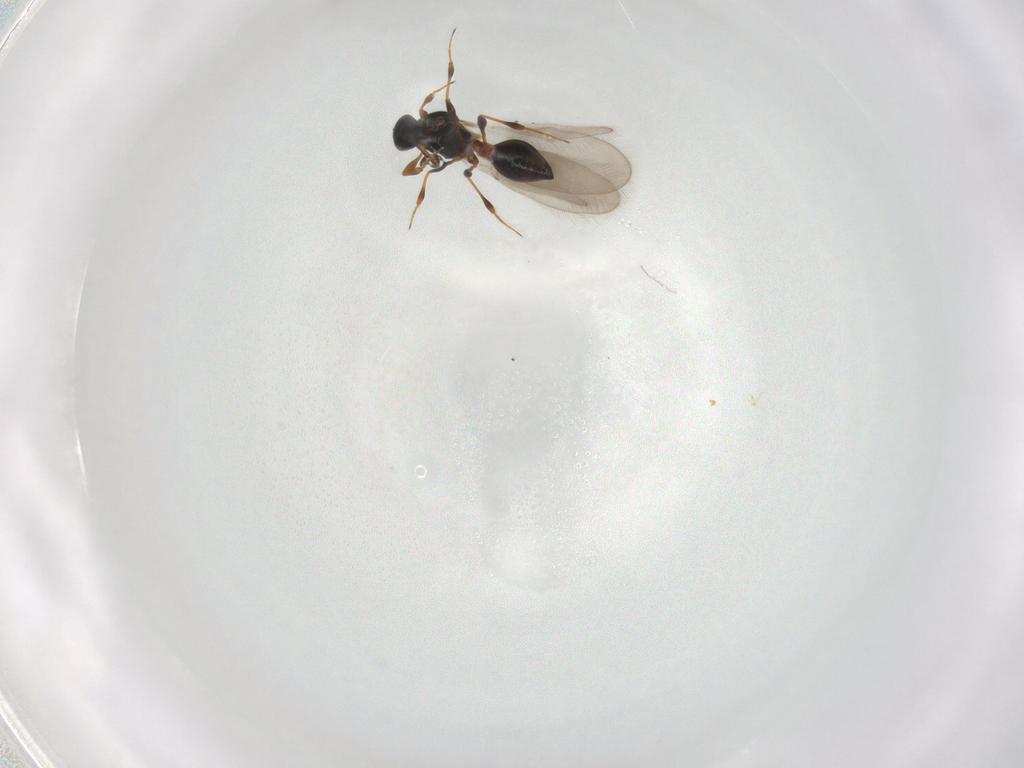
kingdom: Animalia
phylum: Arthropoda
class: Insecta
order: Hymenoptera
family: Platygastridae
